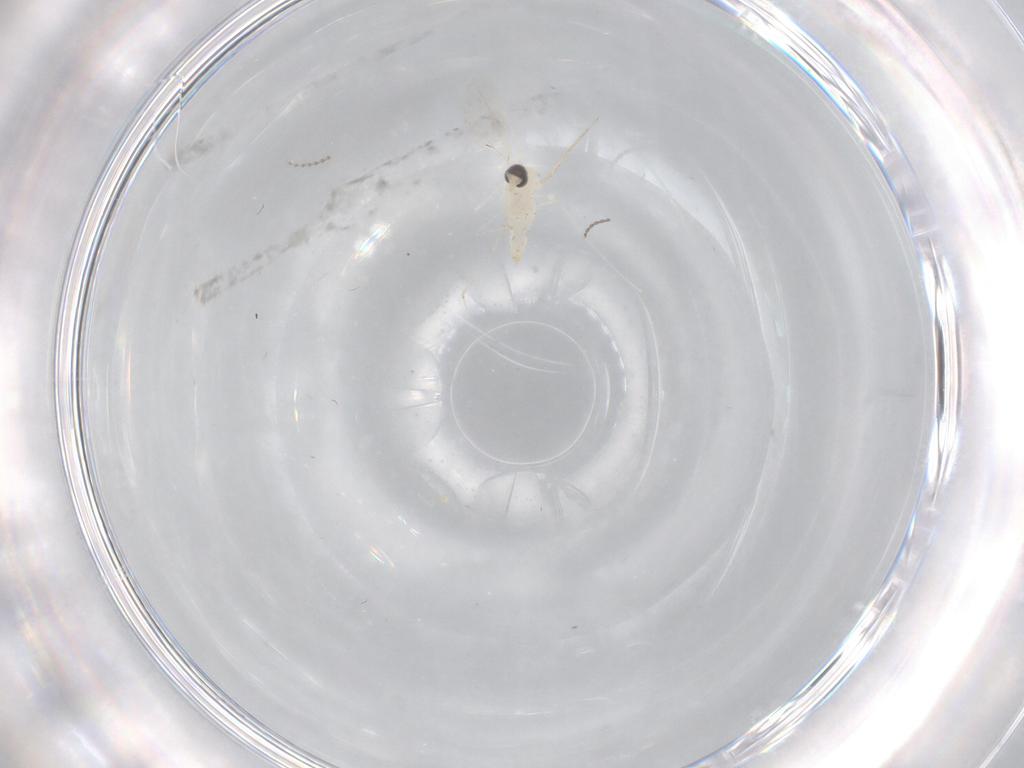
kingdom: Animalia
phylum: Arthropoda
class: Insecta
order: Diptera
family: Cecidomyiidae
